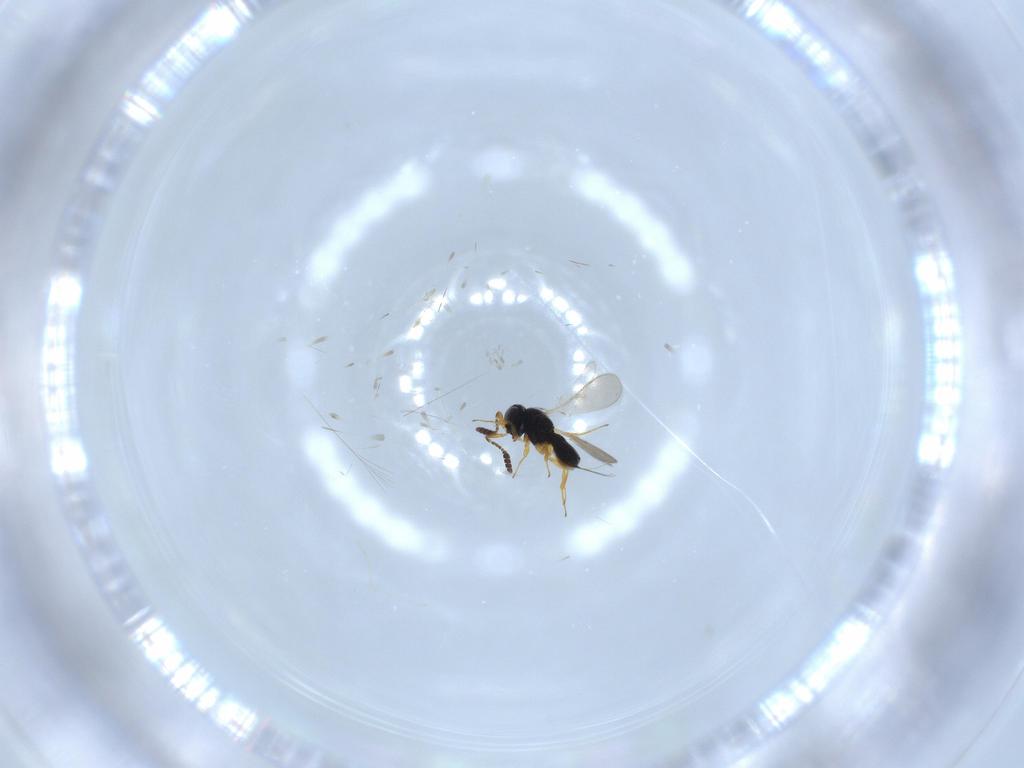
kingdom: Animalia
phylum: Arthropoda
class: Insecta
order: Hymenoptera
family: Scelionidae
